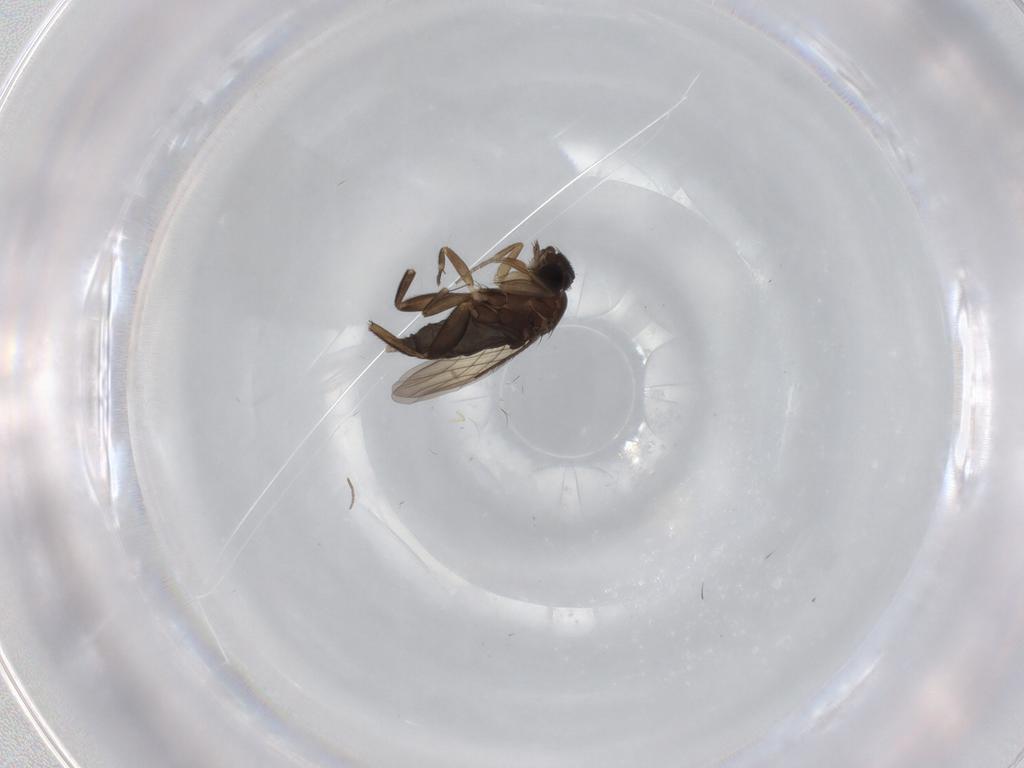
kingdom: Animalia
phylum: Arthropoda
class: Insecta
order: Diptera
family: Phoridae
